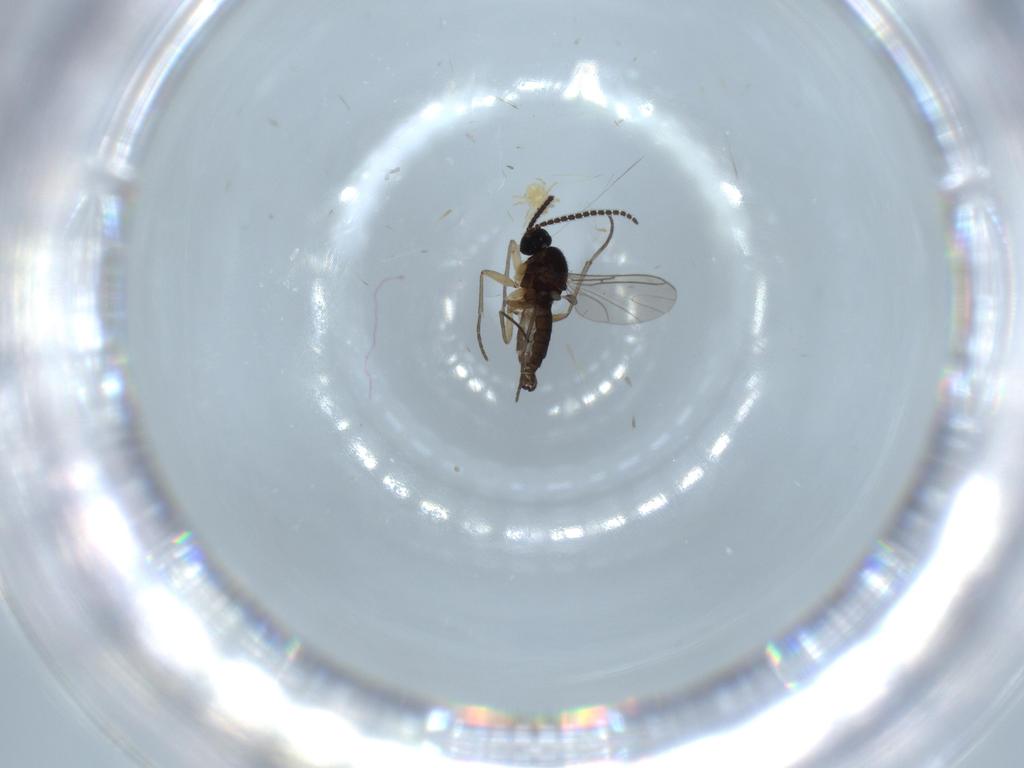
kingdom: Animalia
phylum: Arthropoda
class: Insecta
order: Diptera
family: Sciaridae
